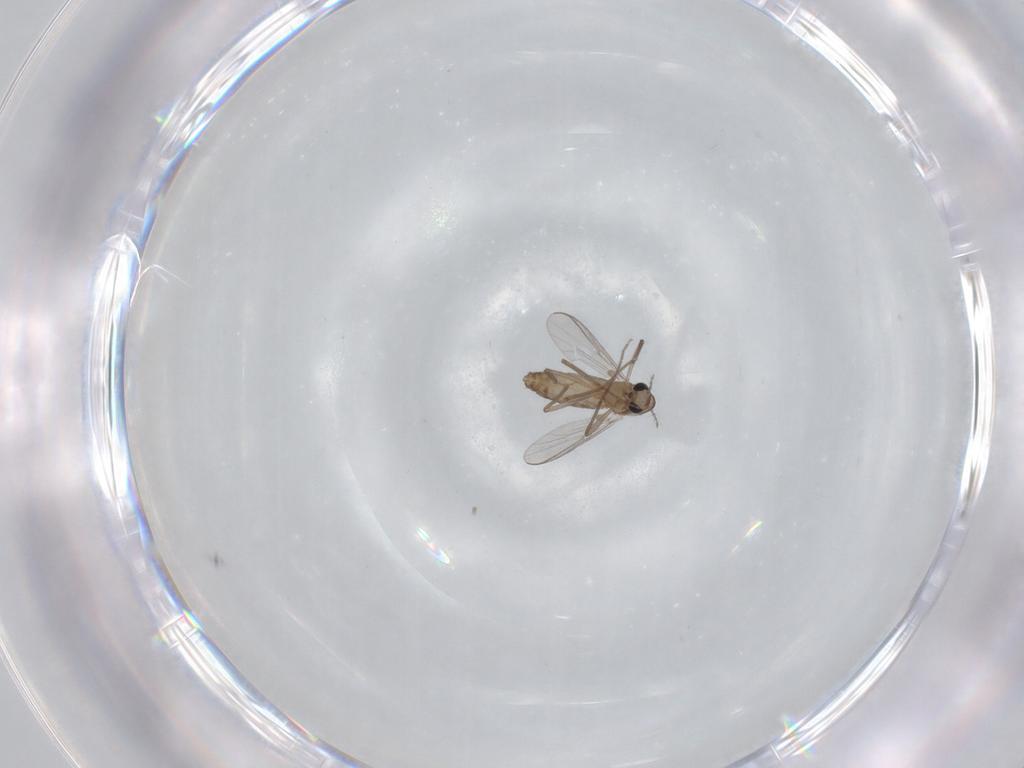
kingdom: Animalia
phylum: Arthropoda
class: Insecta
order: Diptera
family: Chironomidae
